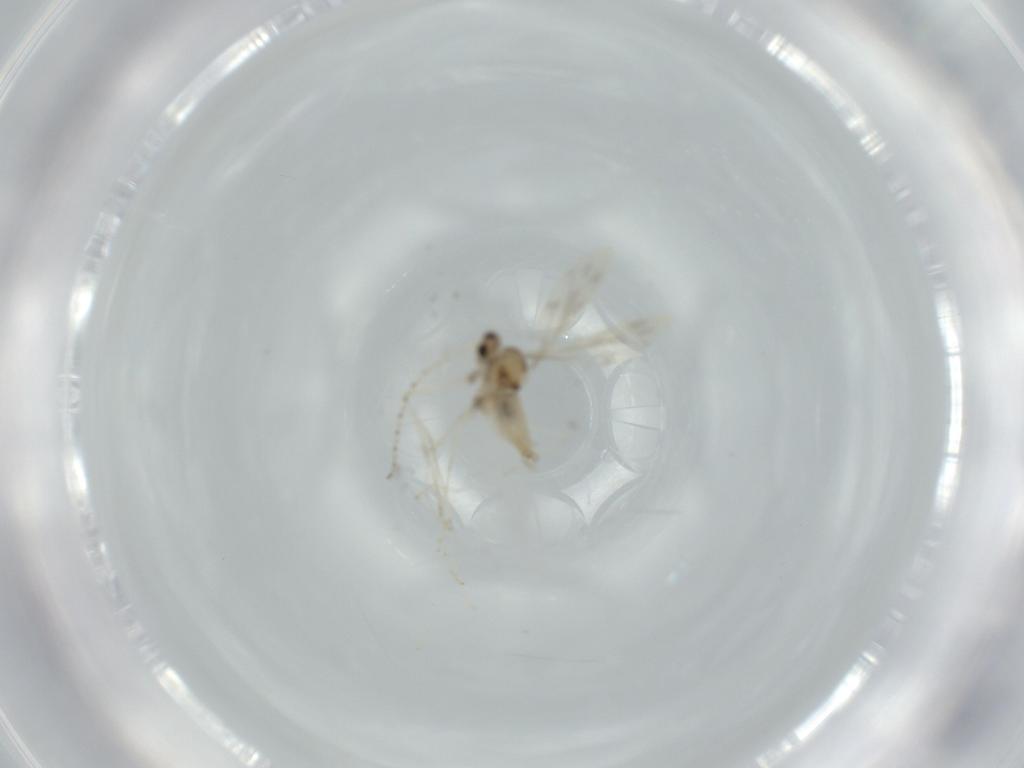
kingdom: Animalia
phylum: Arthropoda
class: Insecta
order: Diptera
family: Cecidomyiidae
